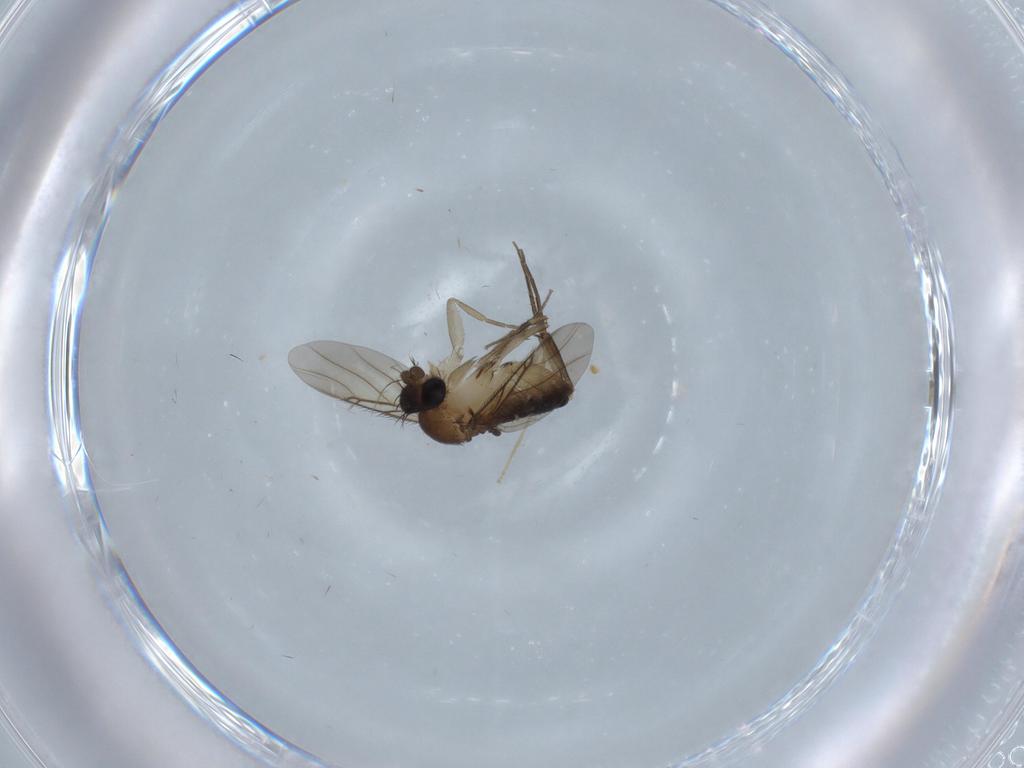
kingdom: Animalia
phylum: Arthropoda
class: Insecta
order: Diptera
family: Cecidomyiidae
